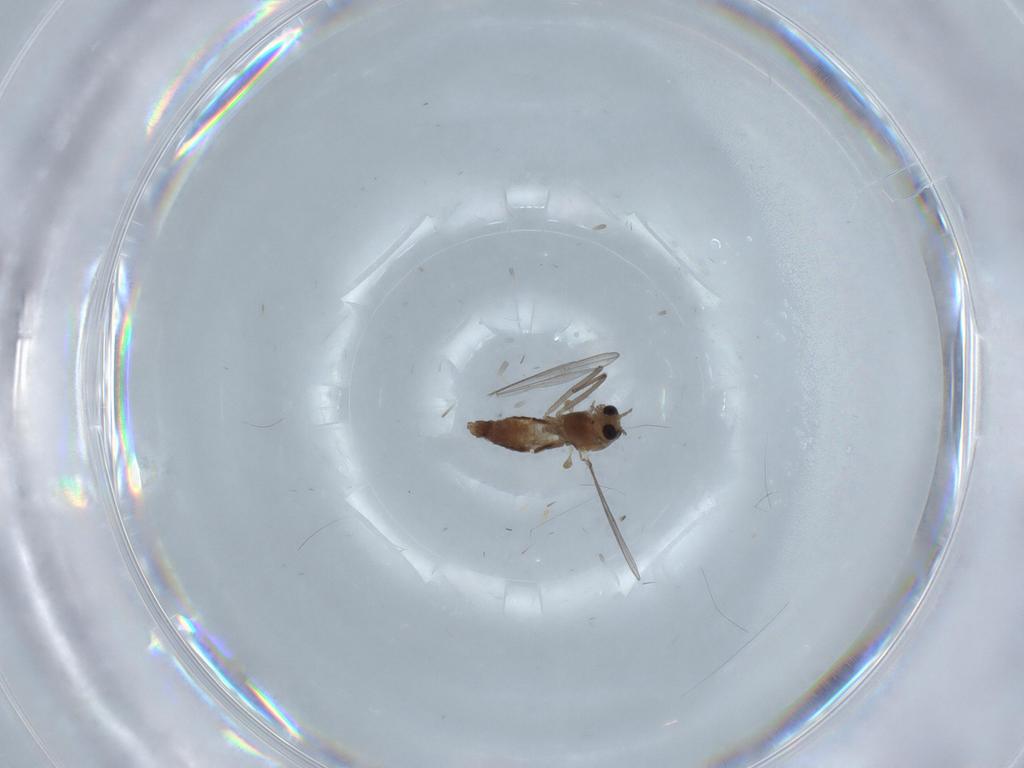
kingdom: Animalia
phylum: Arthropoda
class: Insecta
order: Diptera
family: Chironomidae
